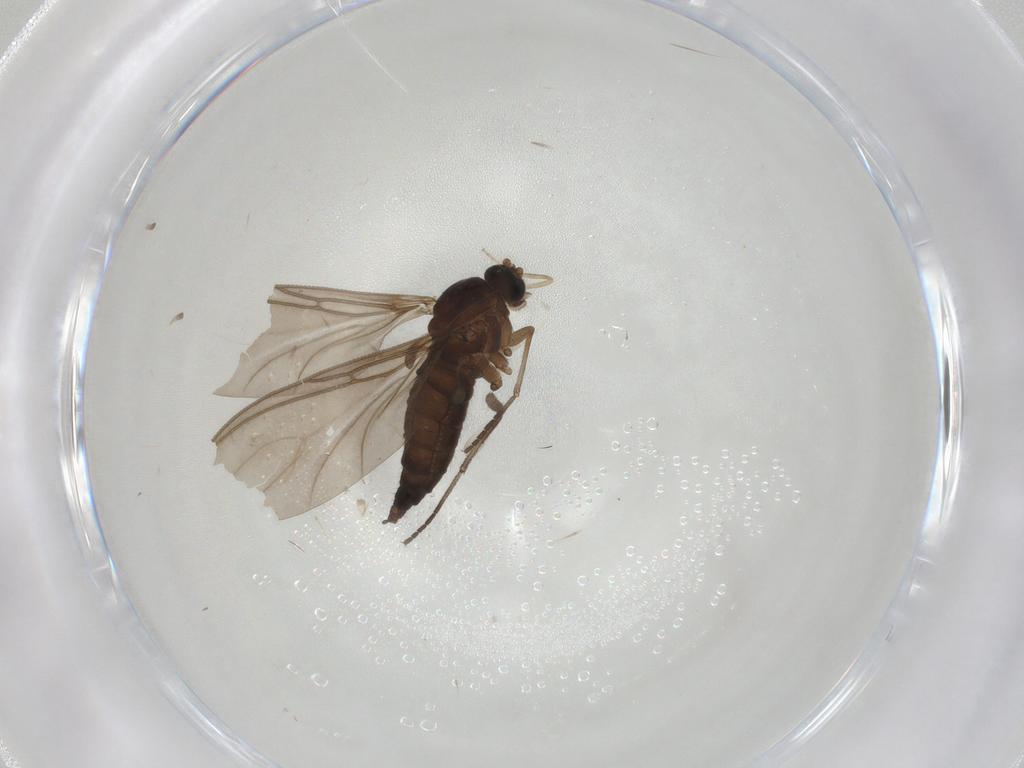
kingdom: Animalia
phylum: Arthropoda
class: Insecta
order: Diptera
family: Sciaridae
